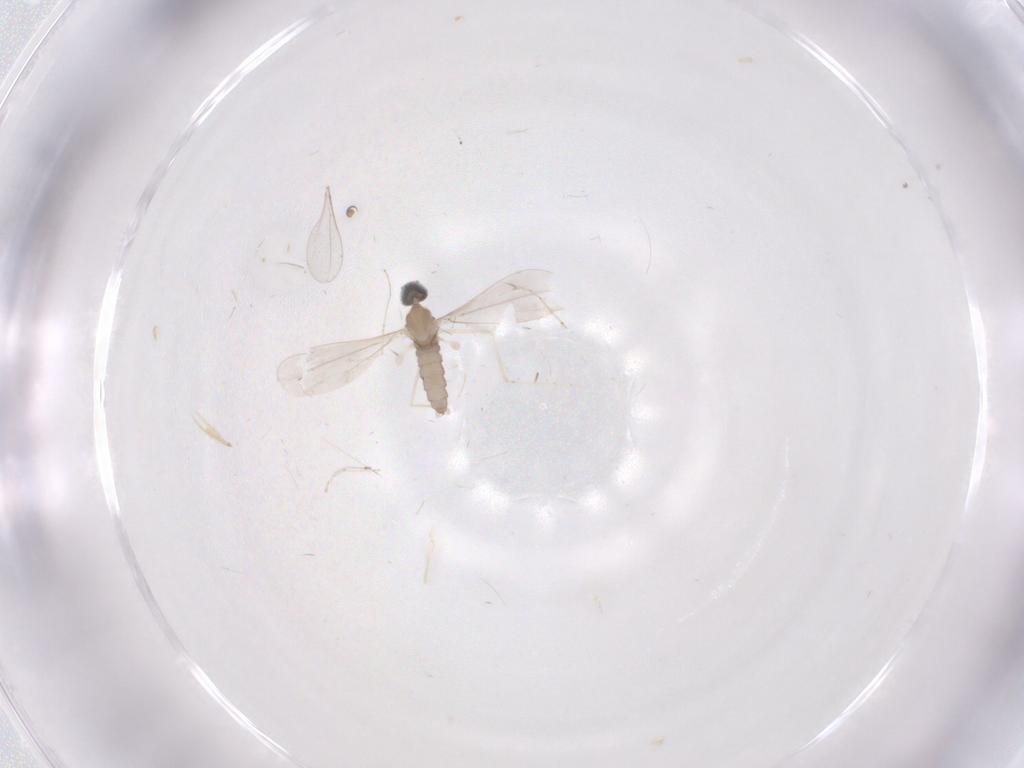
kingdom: Animalia
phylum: Arthropoda
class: Insecta
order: Diptera
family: Cecidomyiidae
